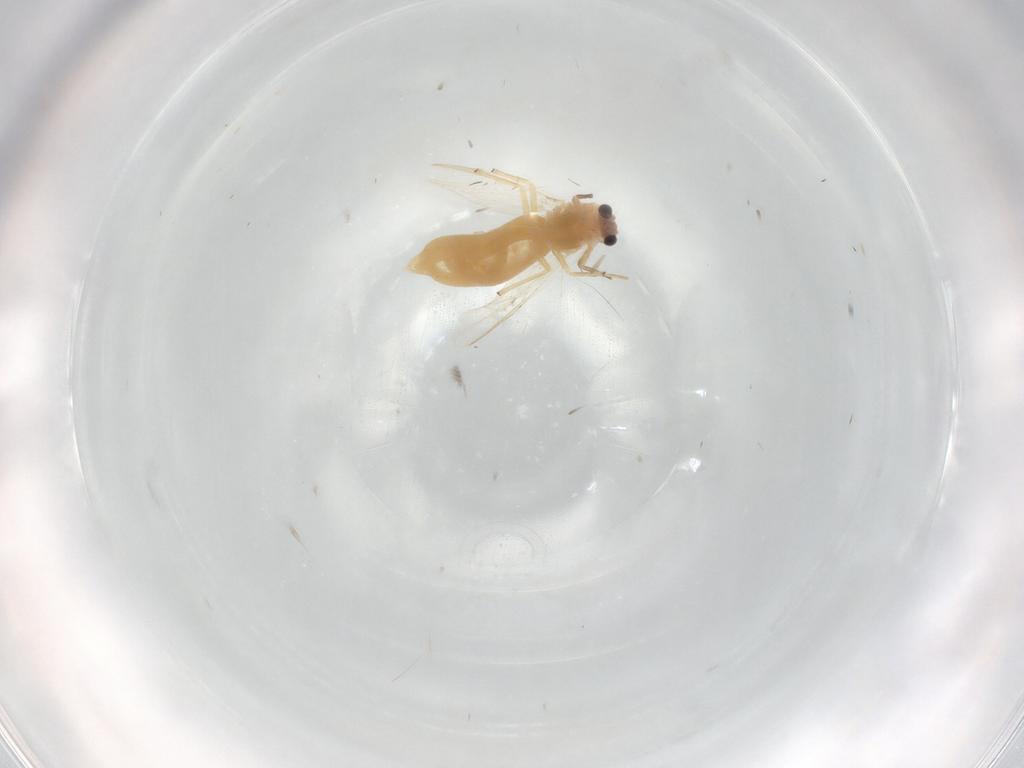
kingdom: Animalia
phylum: Arthropoda
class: Insecta
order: Diptera
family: Chironomidae
